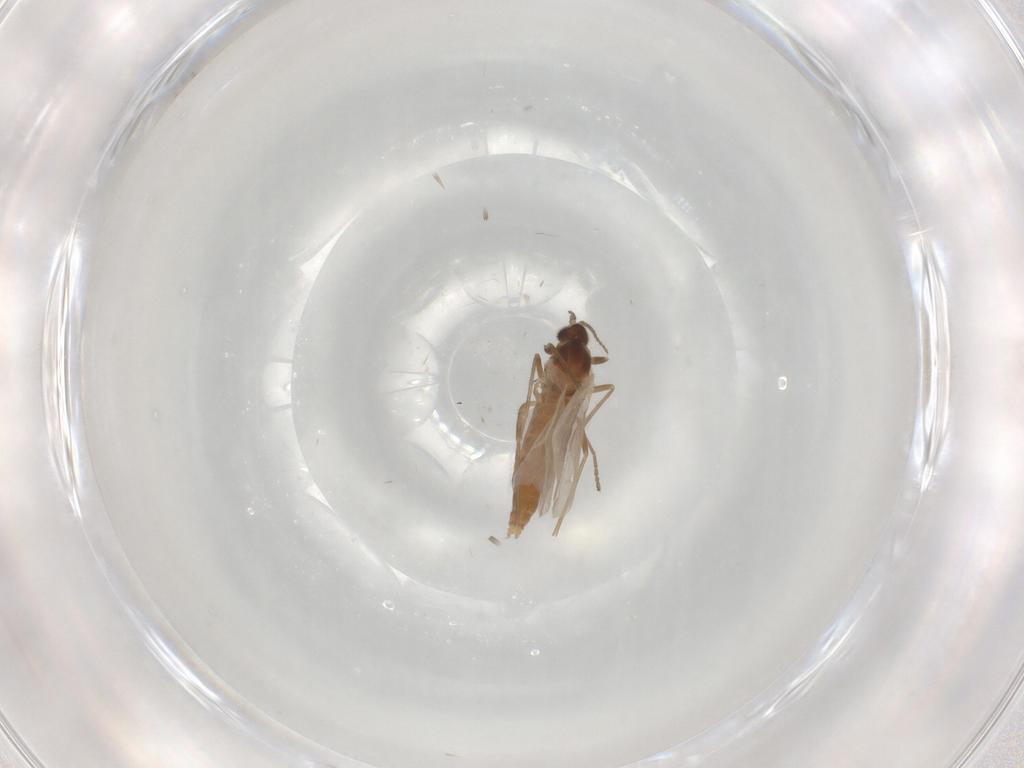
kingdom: Animalia
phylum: Arthropoda
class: Insecta
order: Diptera
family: Cecidomyiidae
